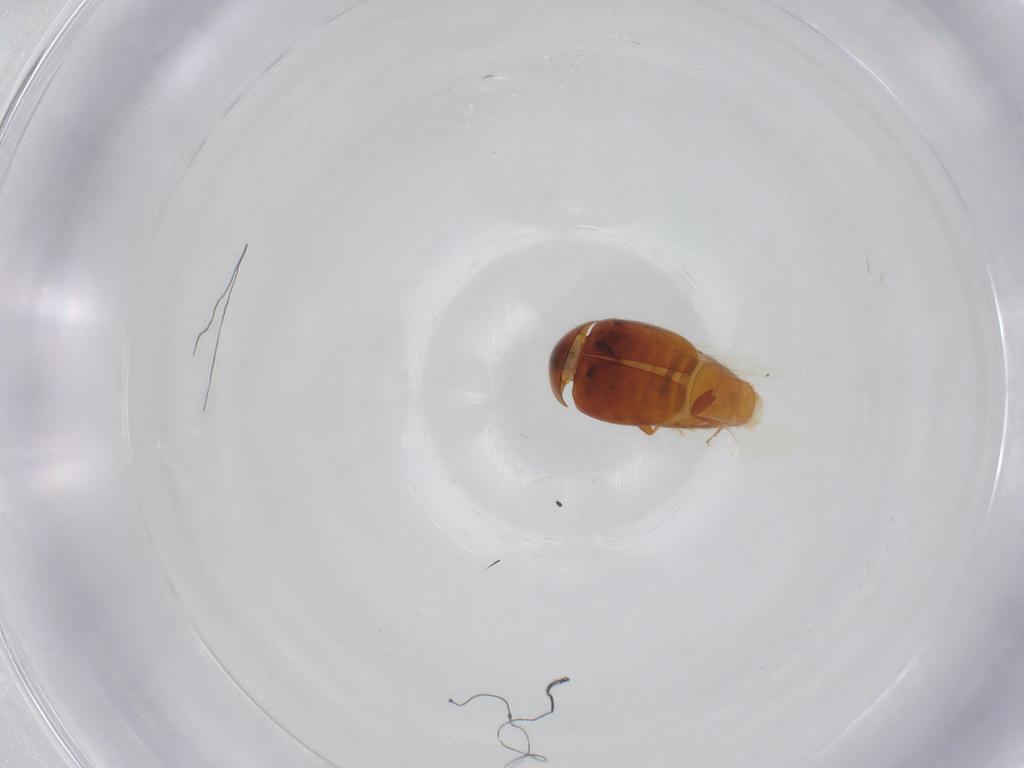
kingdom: Animalia
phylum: Arthropoda
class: Insecta
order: Coleoptera
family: Corylophidae
